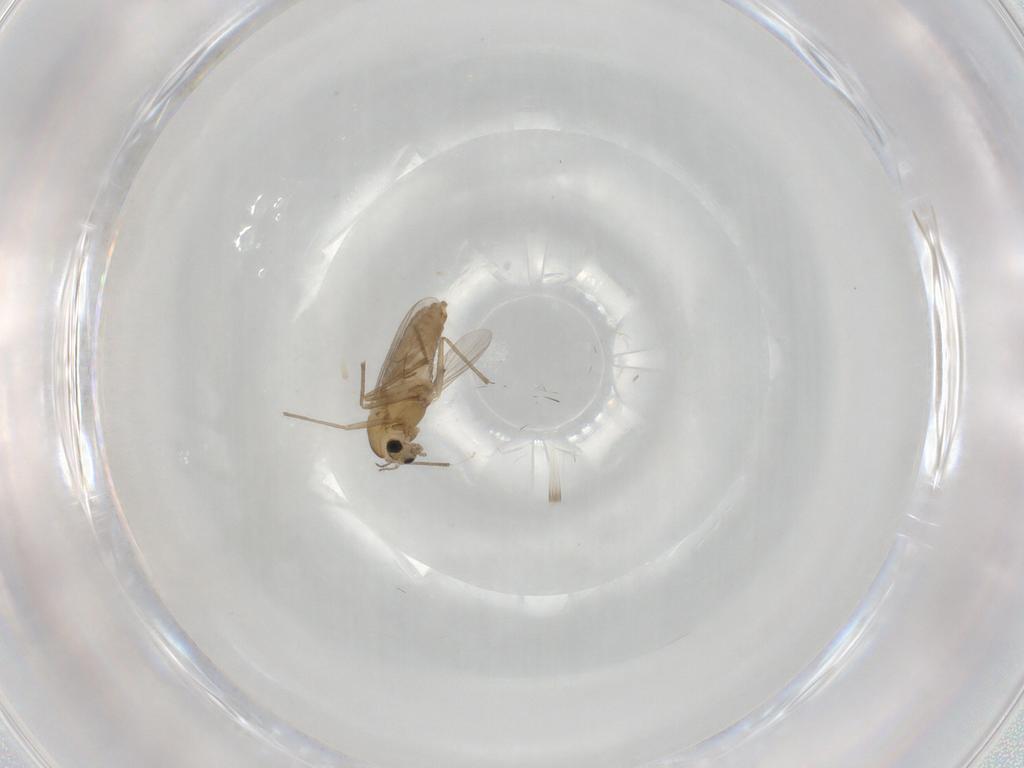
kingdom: Animalia
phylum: Arthropoda
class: Insecta
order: Diptera
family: Chironomidae
